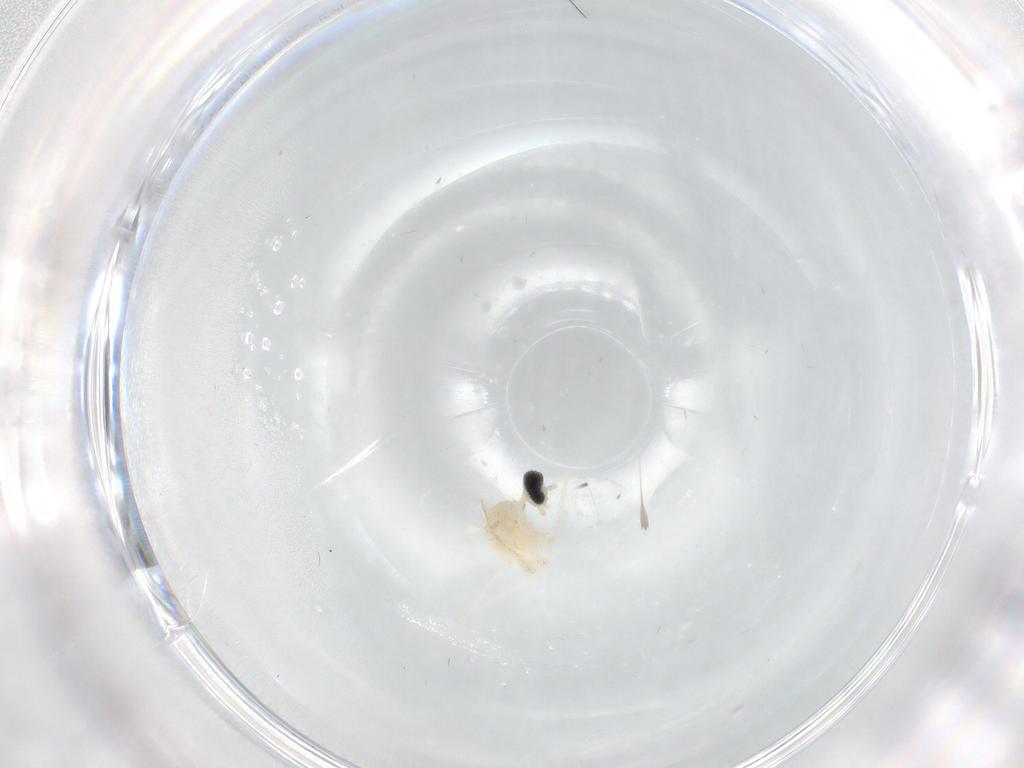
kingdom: Animalia
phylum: Arthropoda
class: Insecta
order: Diptera
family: Cecidomyiidae
